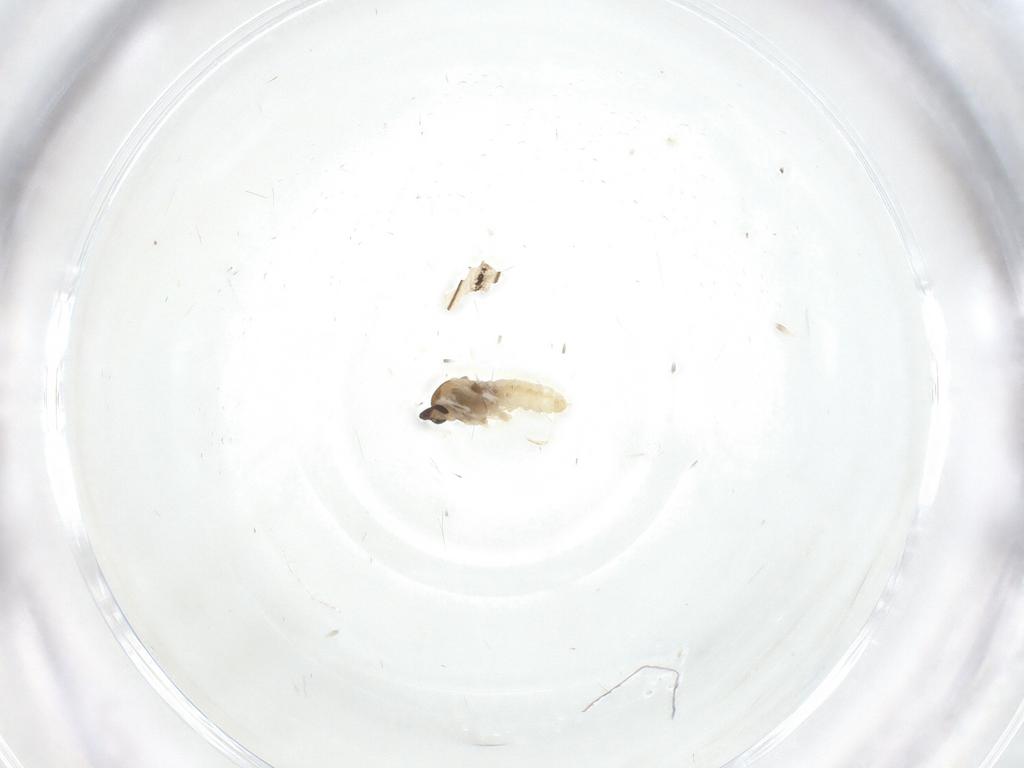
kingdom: Animalia
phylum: Arthropoda
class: Insecta
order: Diptera
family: Cecidomyiidae
